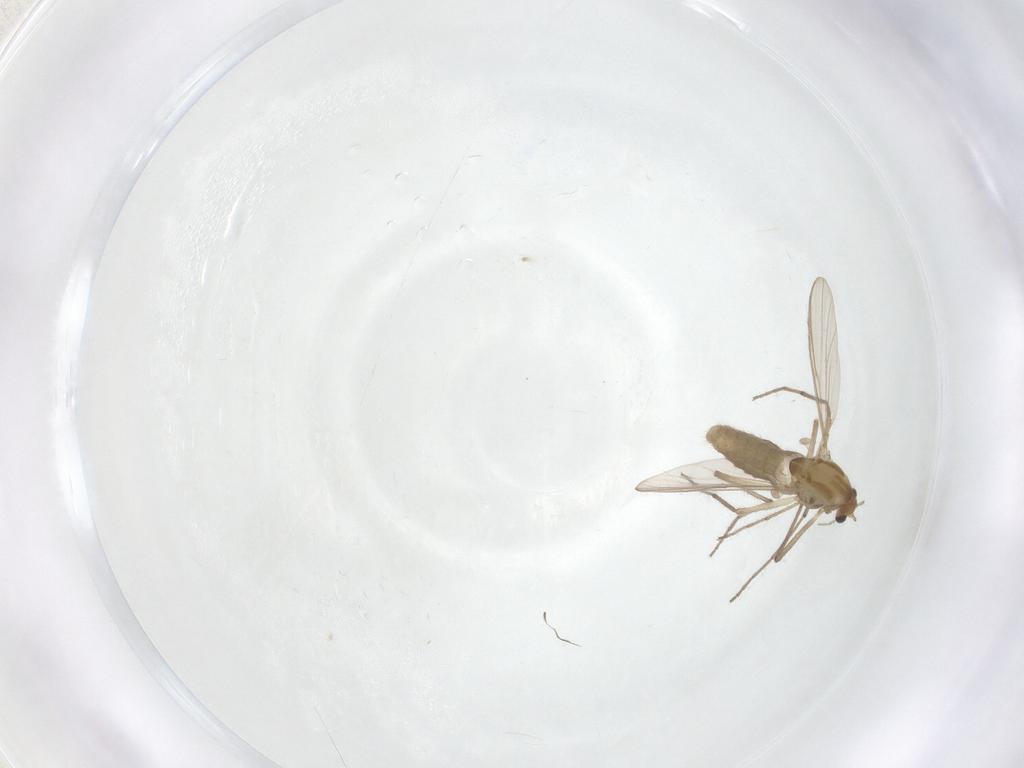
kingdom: Animalia
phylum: Arthropoda
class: Insecta
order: Diptera
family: Chironomidae
